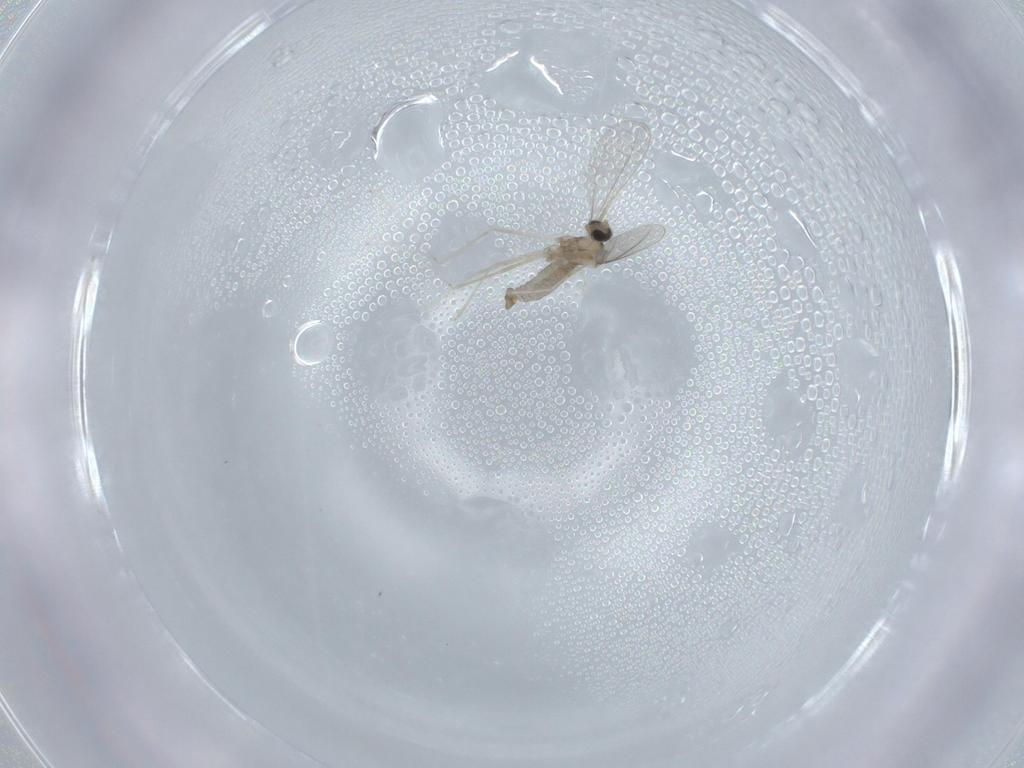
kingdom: Animalia
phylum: Arthropoda
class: Insecta
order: Diptera
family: Cecidomyiidae
